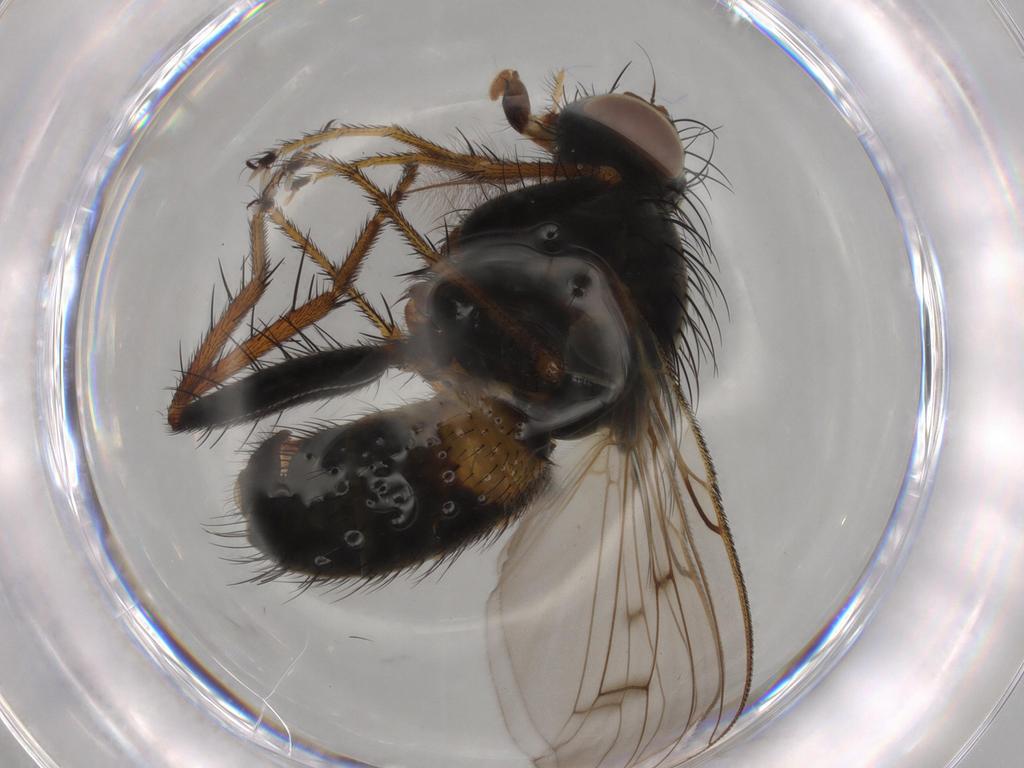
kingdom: Animalia
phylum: Arthropoda
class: Insecta
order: Diptera
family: Muscidae
